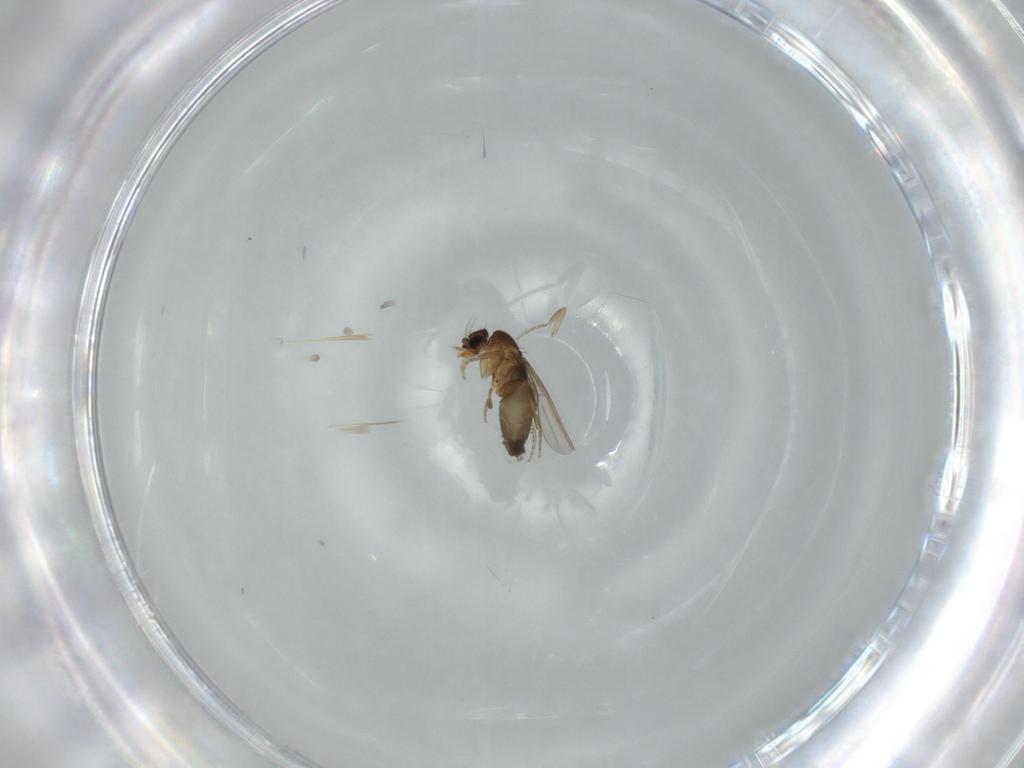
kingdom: Animalia
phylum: Arthropoda
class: Insecta
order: Diptera
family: Phoridae
